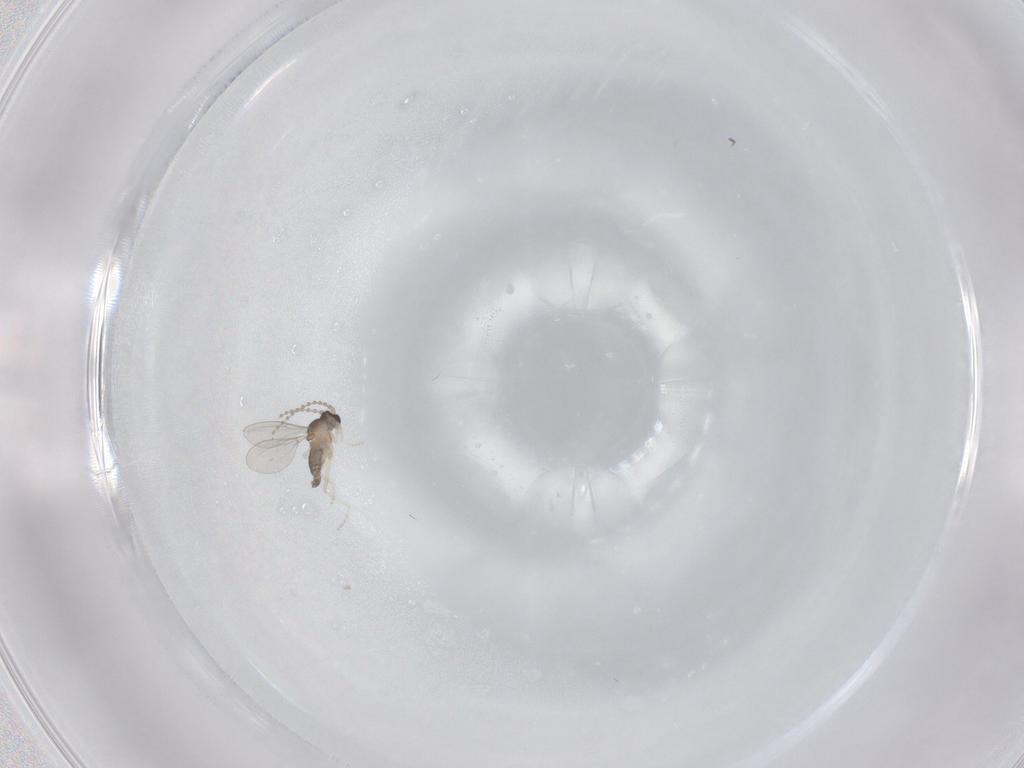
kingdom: Animalia
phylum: Arthropoda
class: Insecta
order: Diptera
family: Cecidomyiidae
